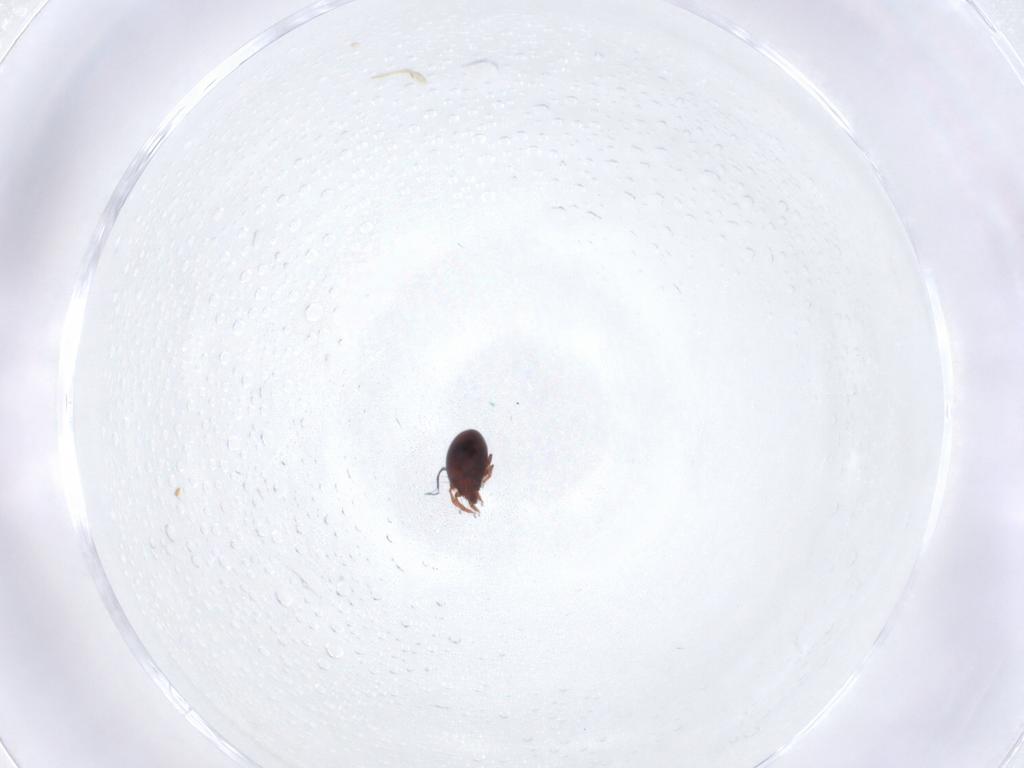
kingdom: Animalia
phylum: Arthropoda
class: Arachnida
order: Sarcoptiformes
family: Ceratozetidae
